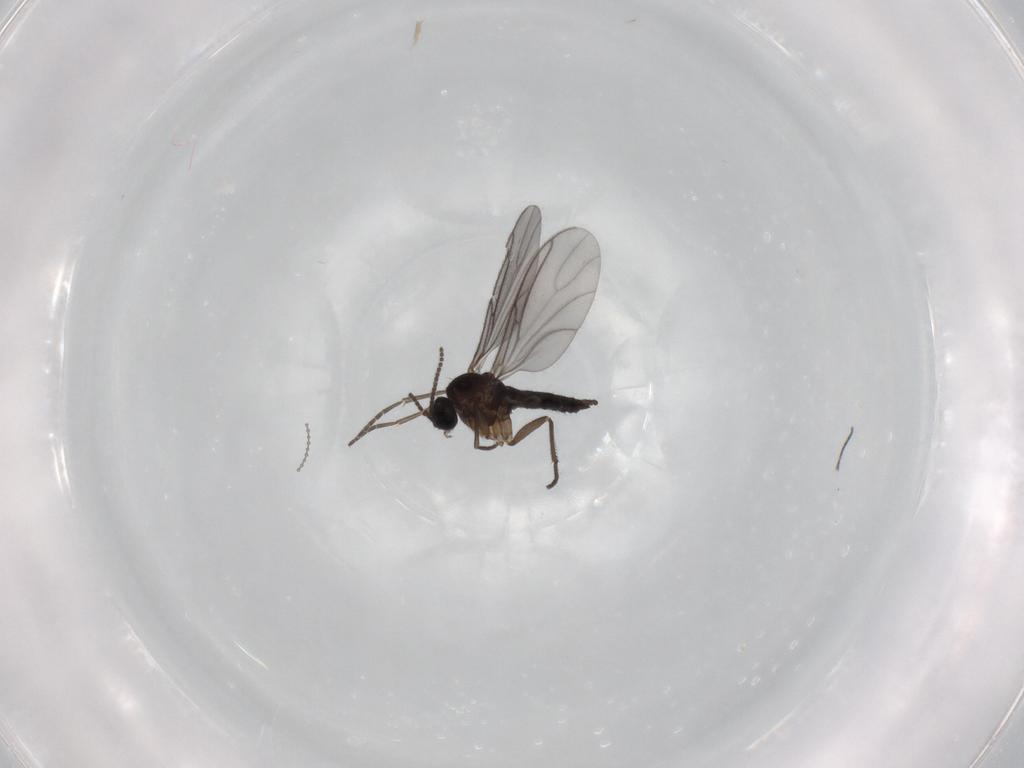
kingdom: Animalia
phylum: Arthropoda
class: Insecta
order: Diptera
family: Sciaridae
